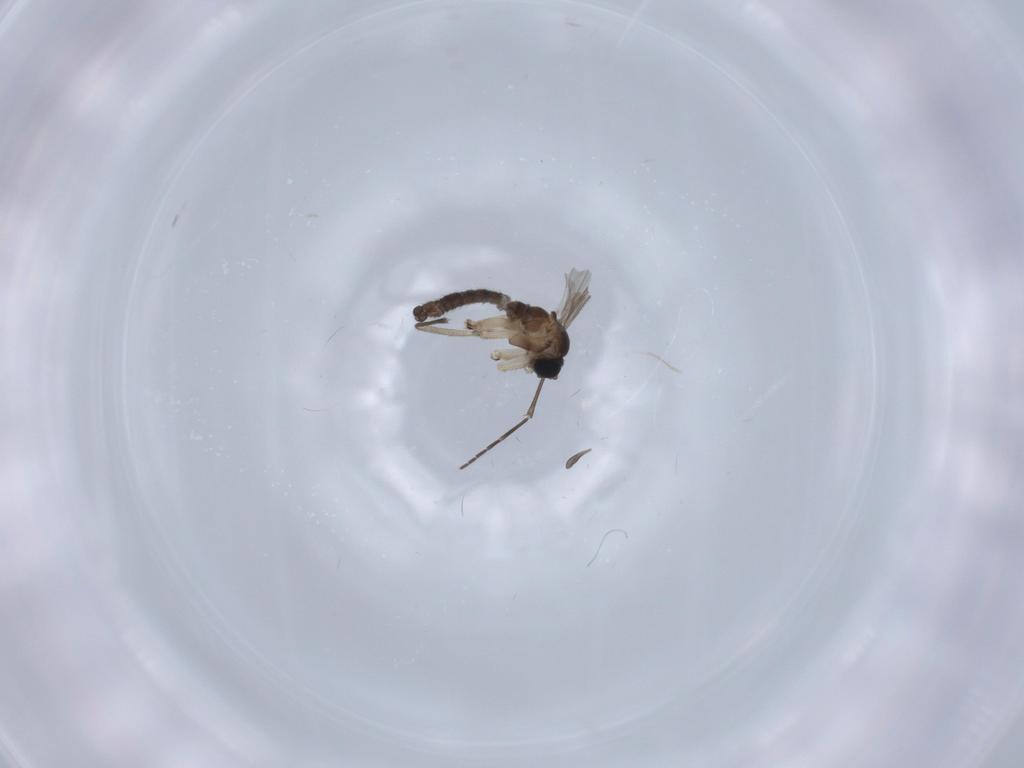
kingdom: Animalia
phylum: Arthropoda
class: Insecta
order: Diptera
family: Sciaridae
